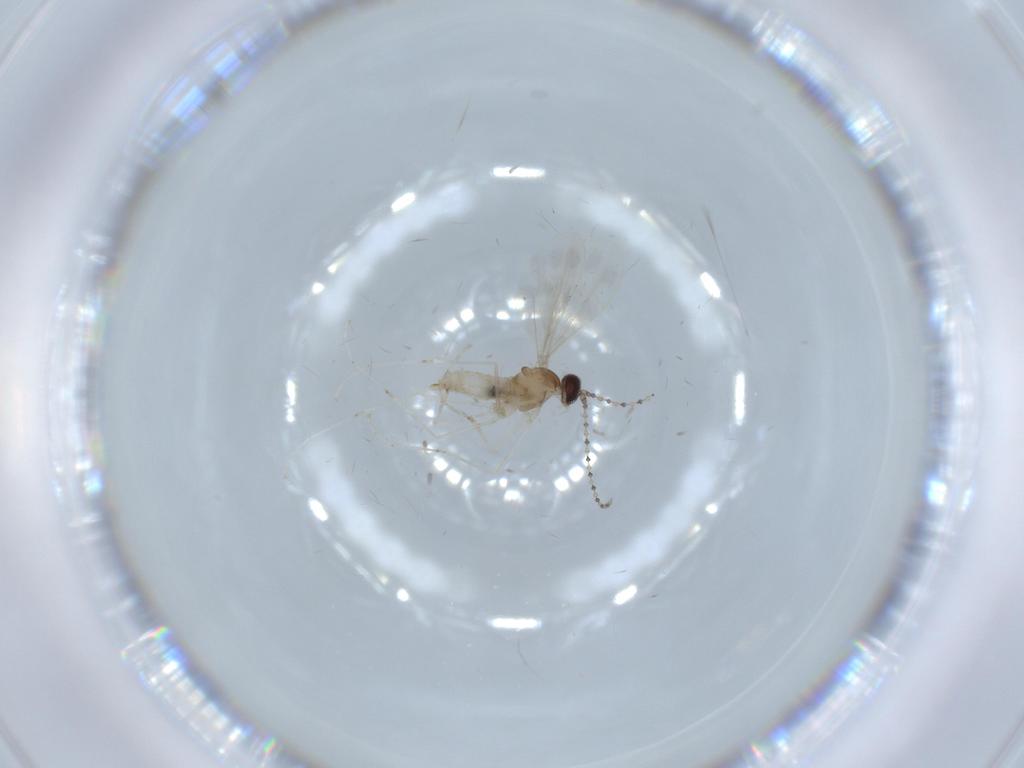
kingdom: Animalia
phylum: Arthropoda
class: Insecta
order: Diptera
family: Cecidomyiidae
